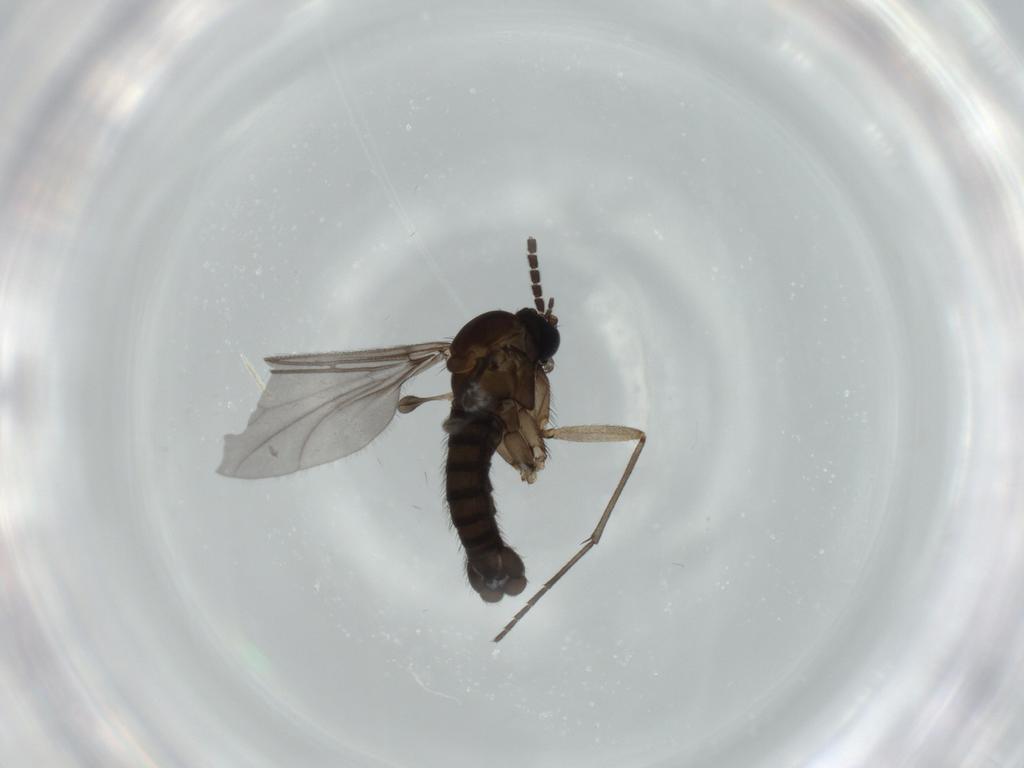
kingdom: Animalia
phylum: Arthropoda
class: Insecta
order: Diptera
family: Sciaridae
